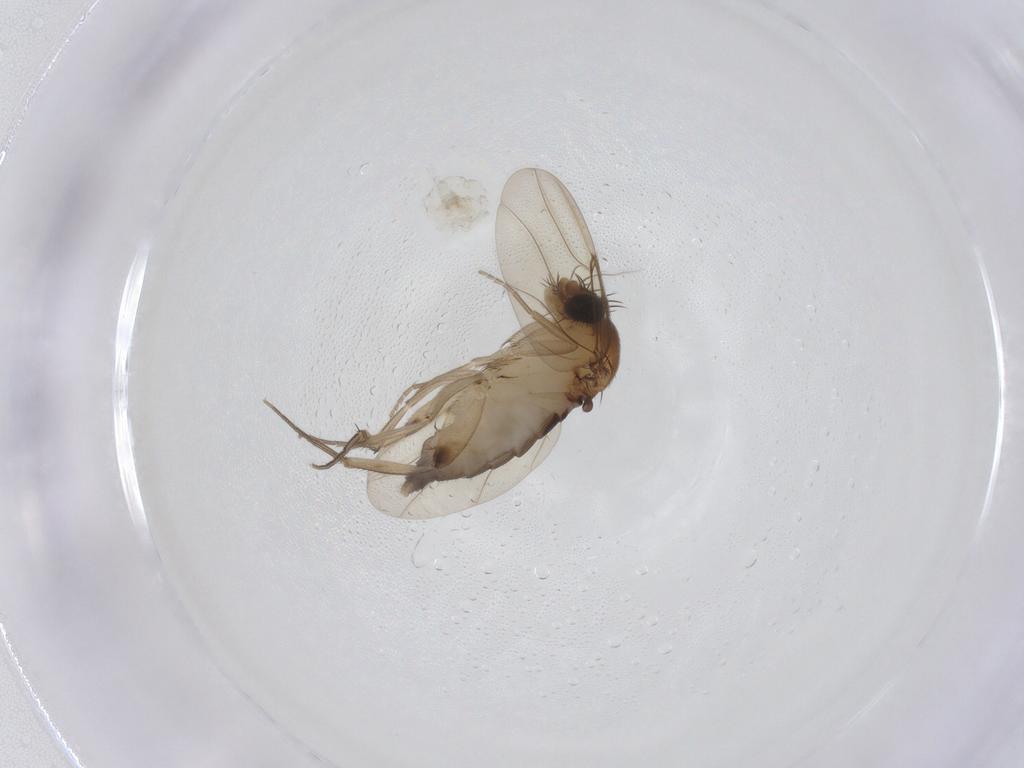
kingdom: Animalia
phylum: Arthropoda
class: Insecta
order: Diptera
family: Phoridae
